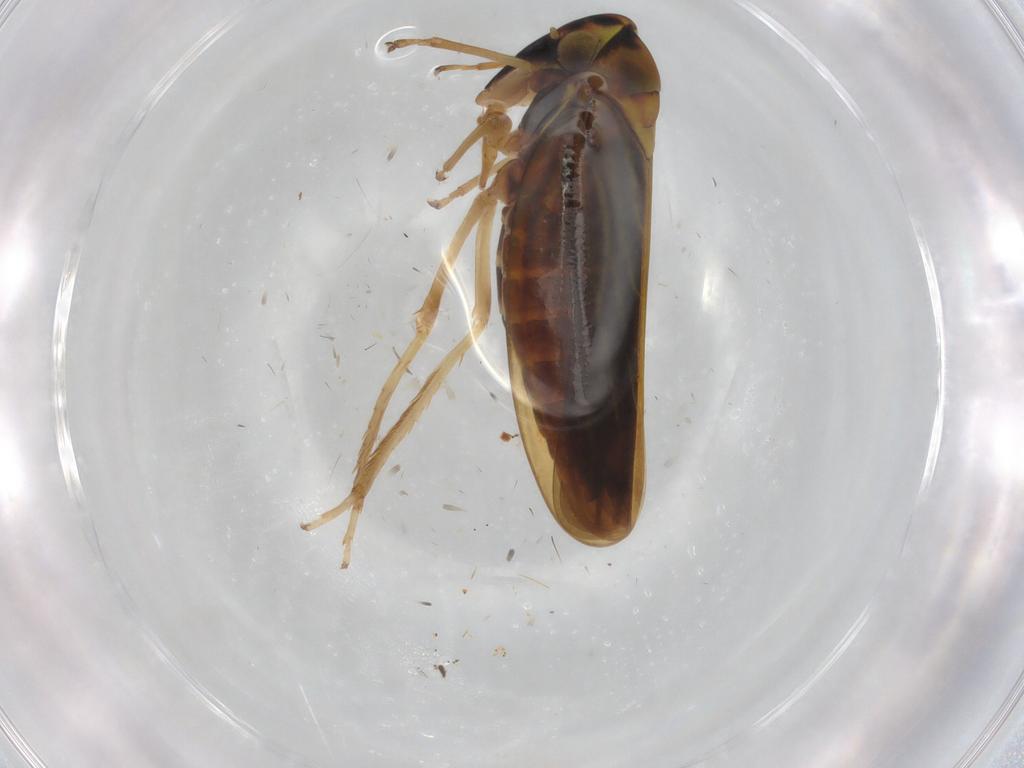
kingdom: Animalia
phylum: Arthropoda
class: Insecta
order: Hemiptera
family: Cicadellidae
